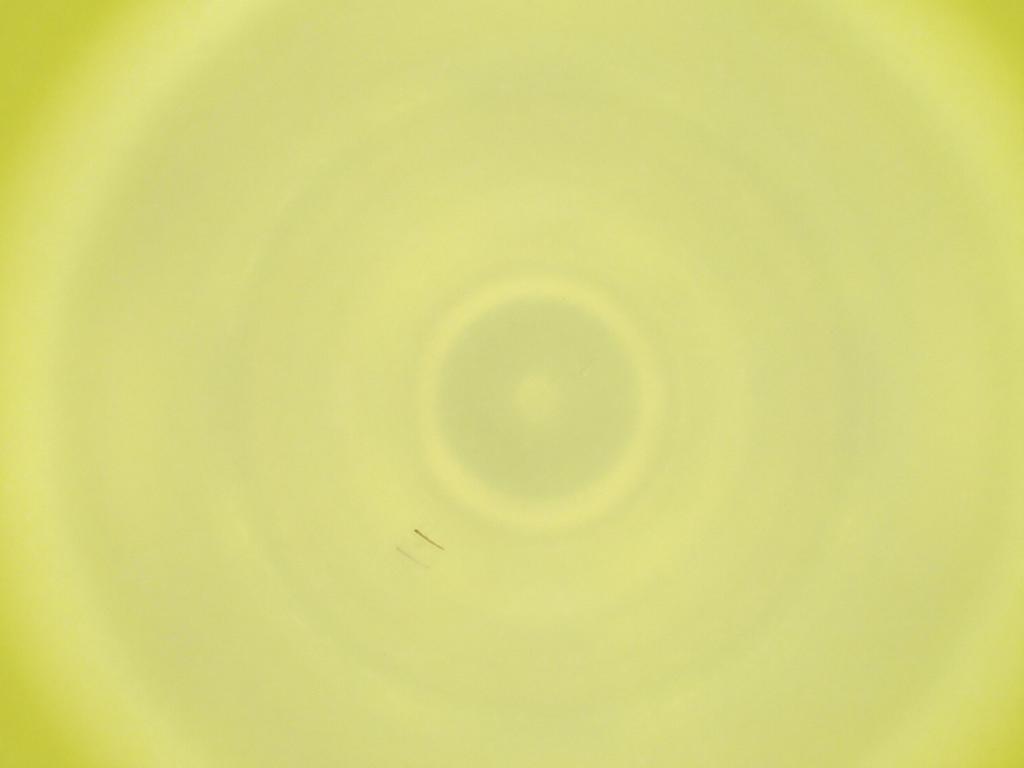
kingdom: Animalia
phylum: Arthropoda
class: Insecta
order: Diptera
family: Cecidomyiidae
